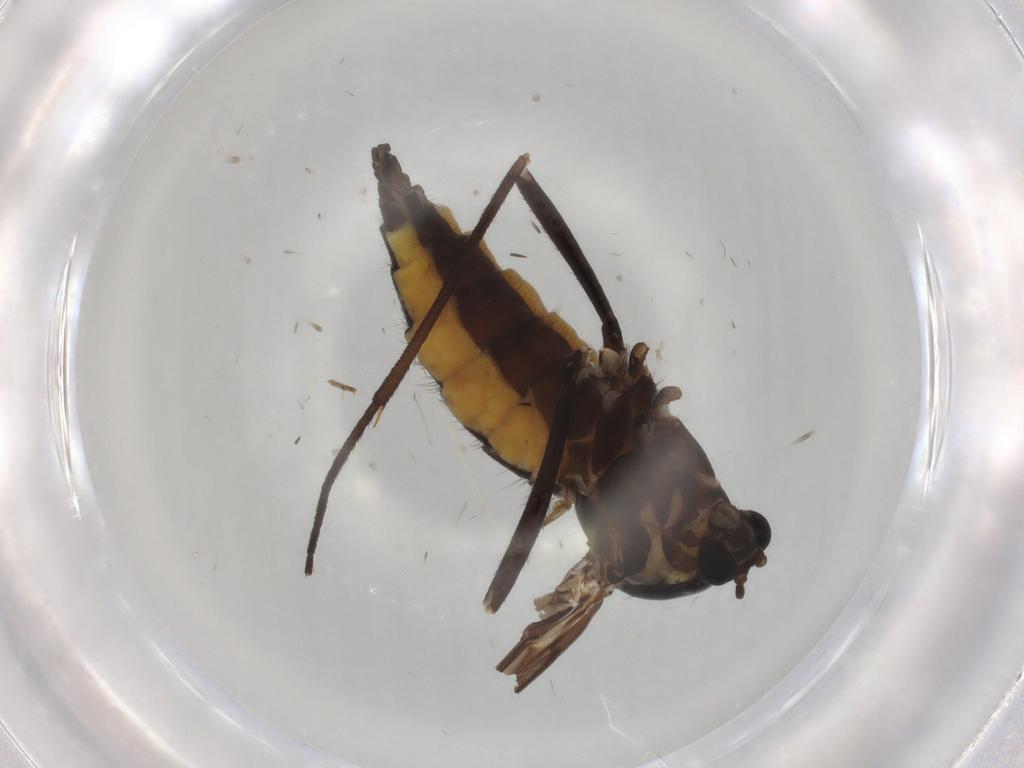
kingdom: Animalia
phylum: Arthropoda
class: Insecta
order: Diptera
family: Sciaridae
